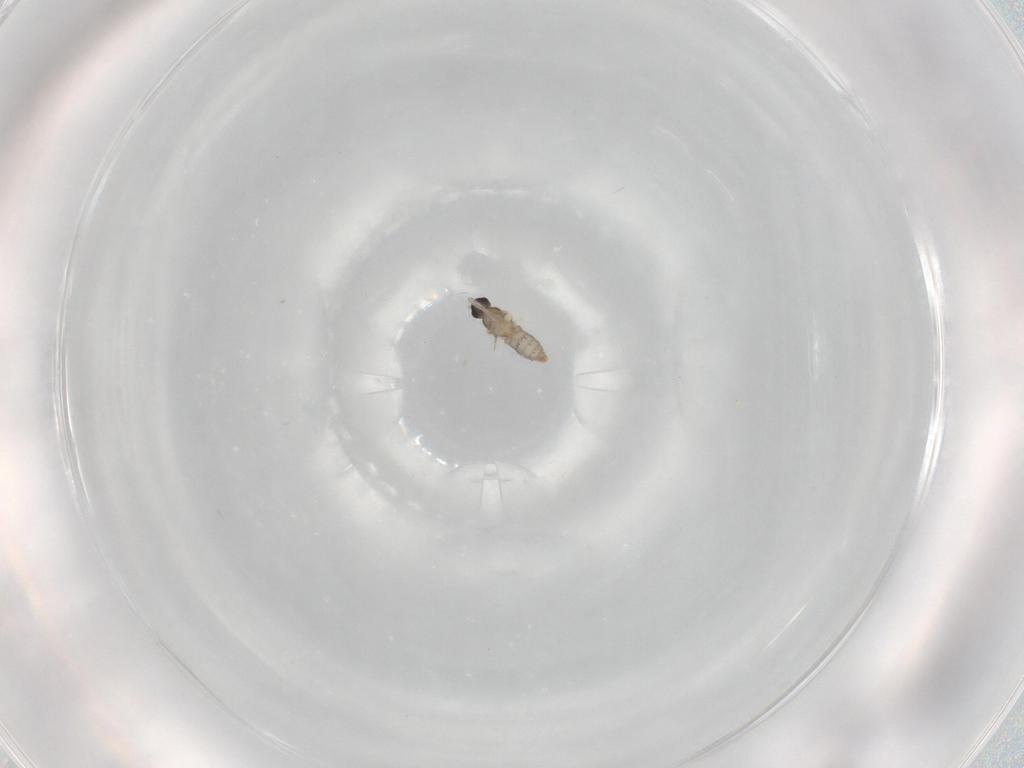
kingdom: Animalia
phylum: Arthropoda
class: Insecta
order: Diptera
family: Cecidomyiidae
